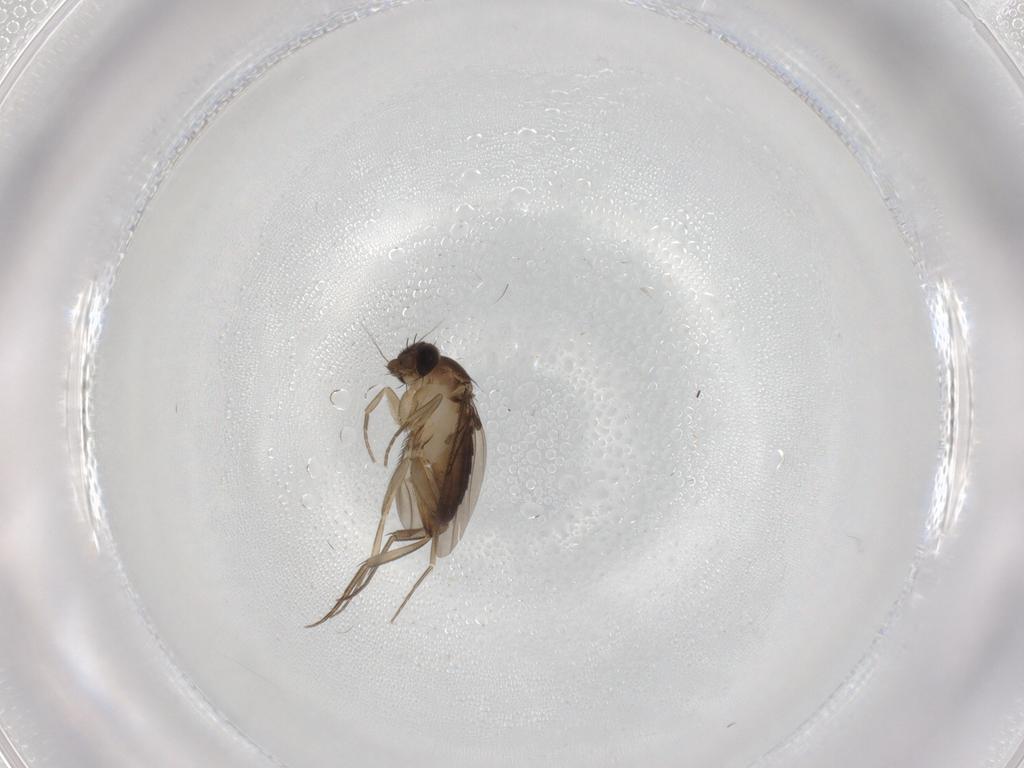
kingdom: Animalia
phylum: Arthropoda
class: Insecta
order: Diptera
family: Phoridae
